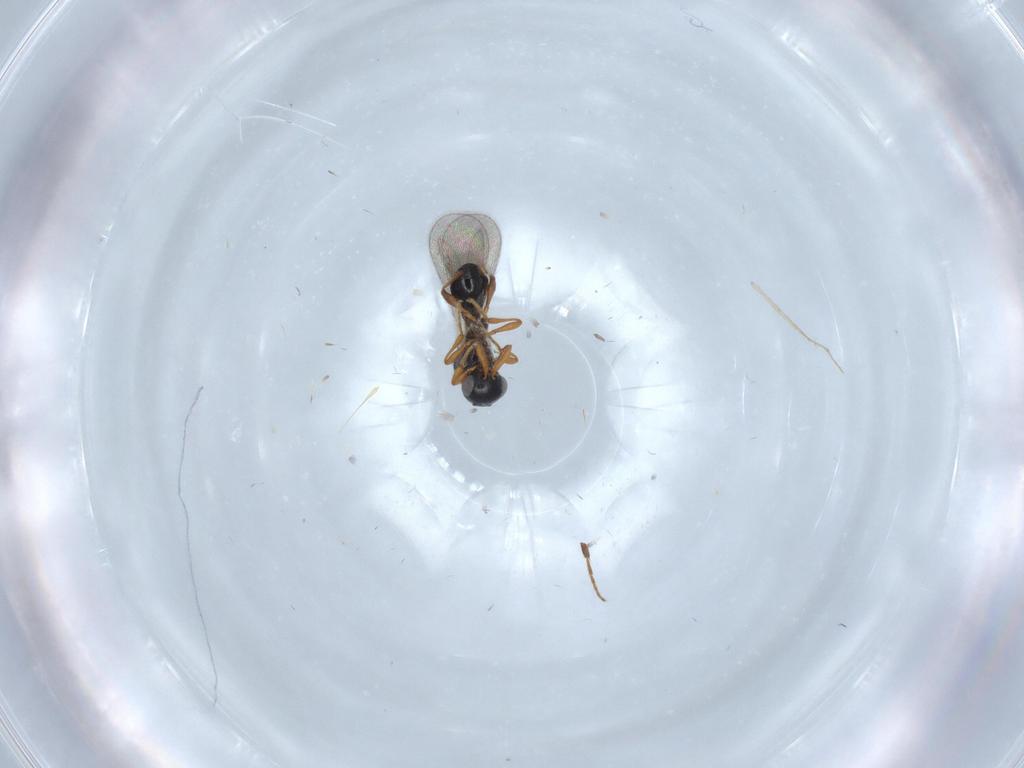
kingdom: Animalia
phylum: Arthropoda
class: Insecta
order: Hymenoptera
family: Platygastridae
